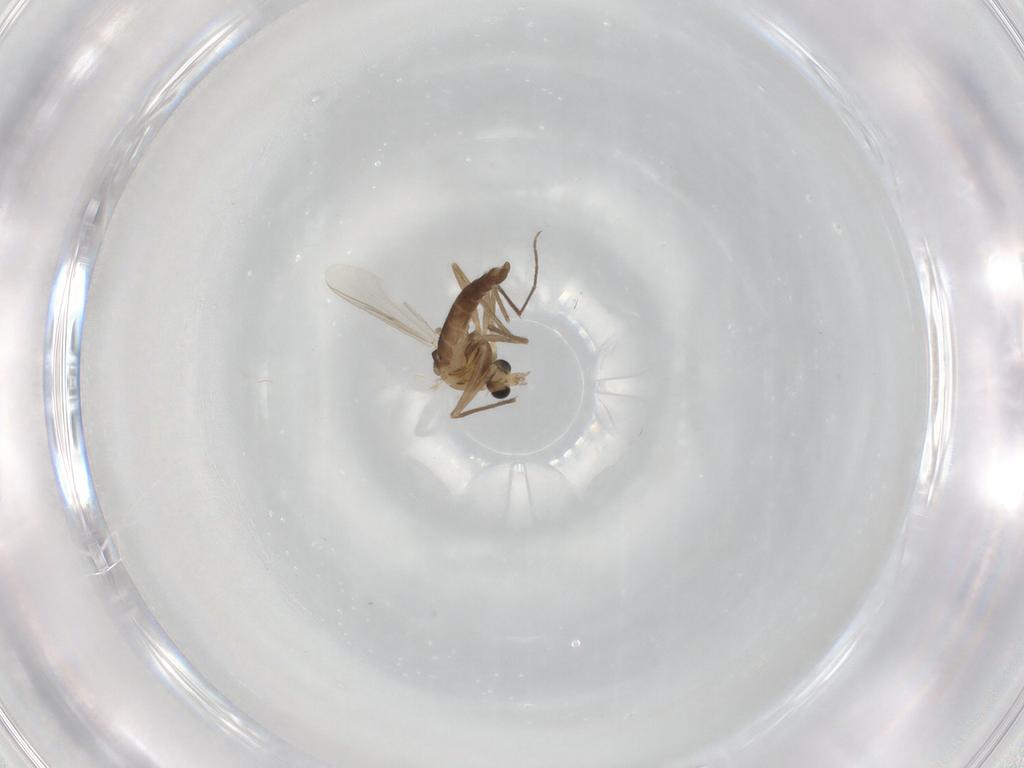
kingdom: Animalia
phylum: Arthropoda
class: Insecta
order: Diptera
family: Chironomidae
